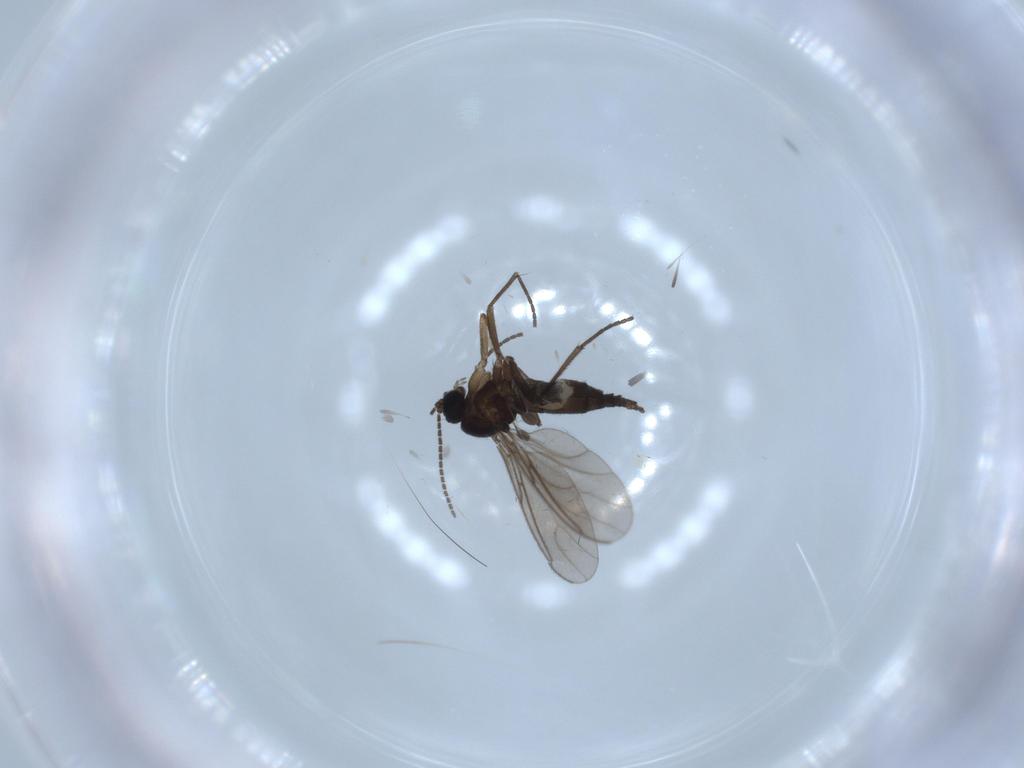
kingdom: Animalia
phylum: Arthropoda
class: Insecta
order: Diptera
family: Sciaridae
